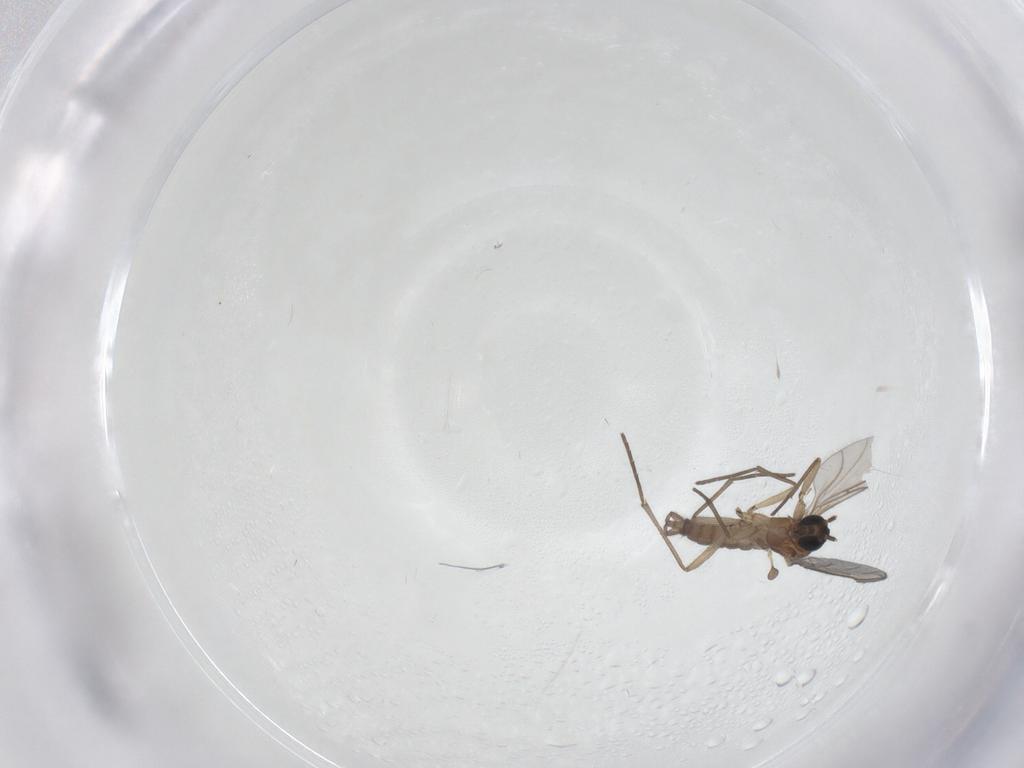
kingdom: Animalia
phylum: Arthropoda
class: Insecta
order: Diptera
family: Sciaridae
